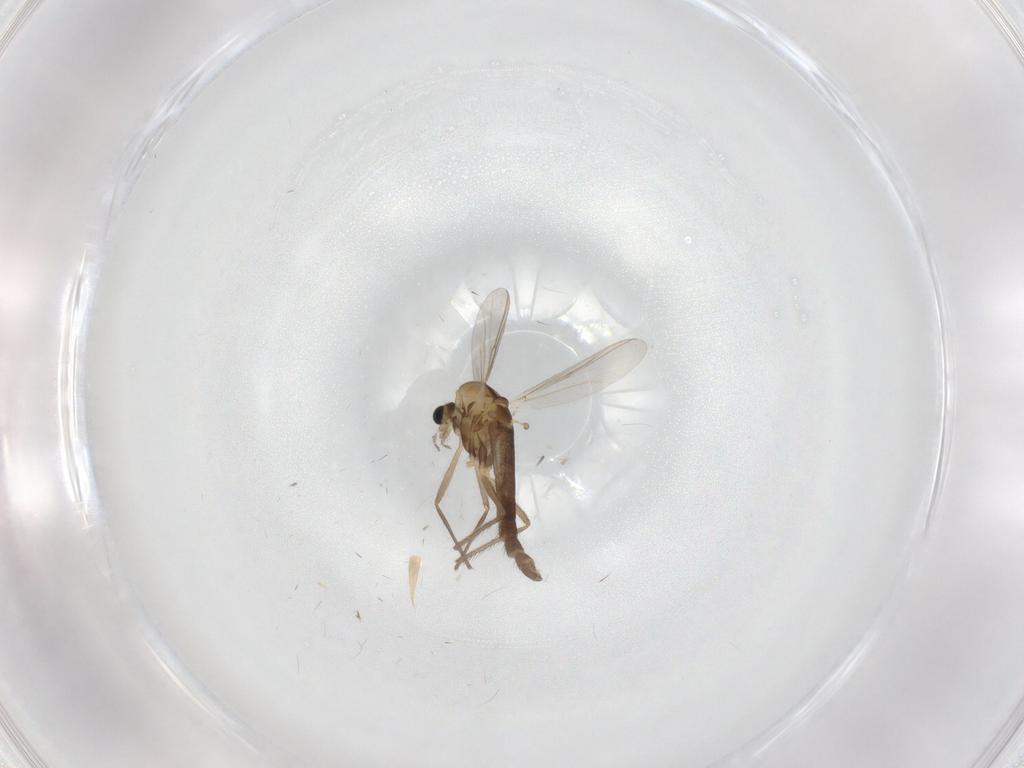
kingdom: Animalia
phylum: Arthropoda
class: Insecta
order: Diptera
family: Chironomidae
